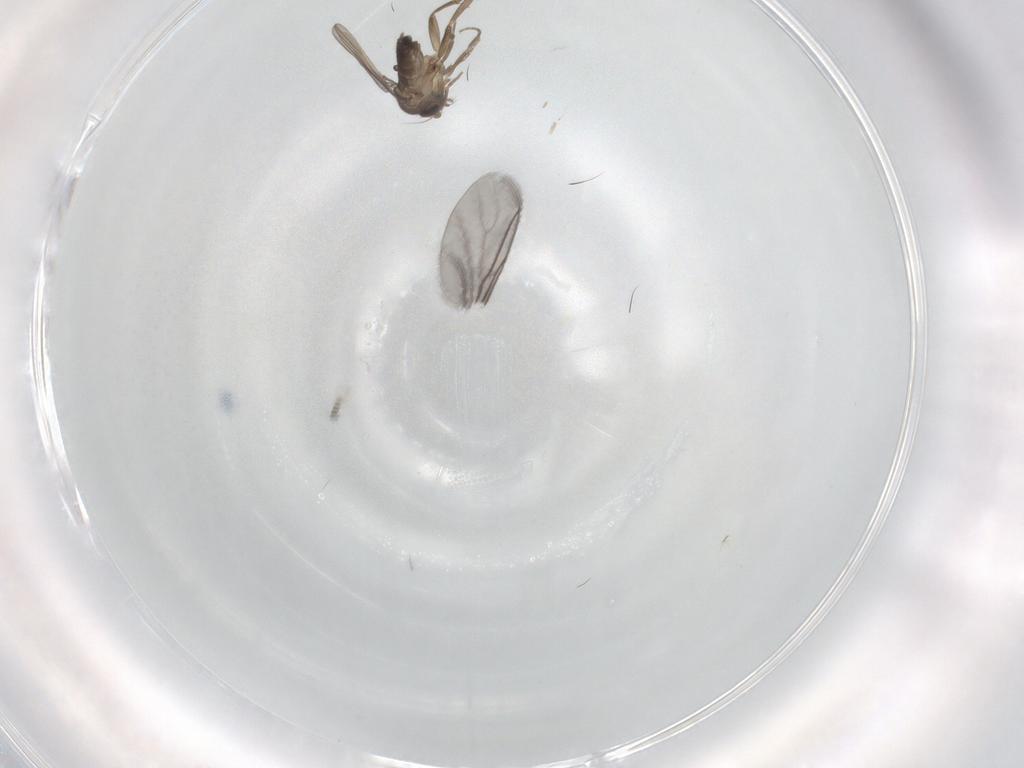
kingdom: Animalia
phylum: Arthropoda
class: Insecta
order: Diptera
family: Phoridae
